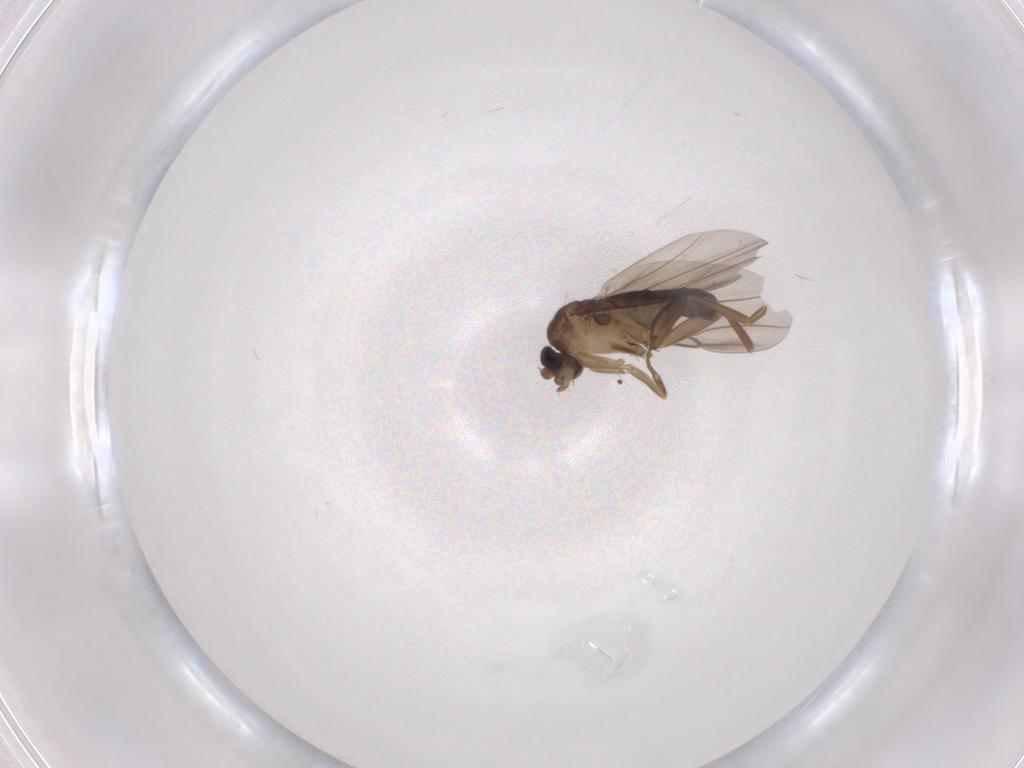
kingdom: Animalia
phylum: Arthropoda
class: Insecta
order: Diptera
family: Phoridae
